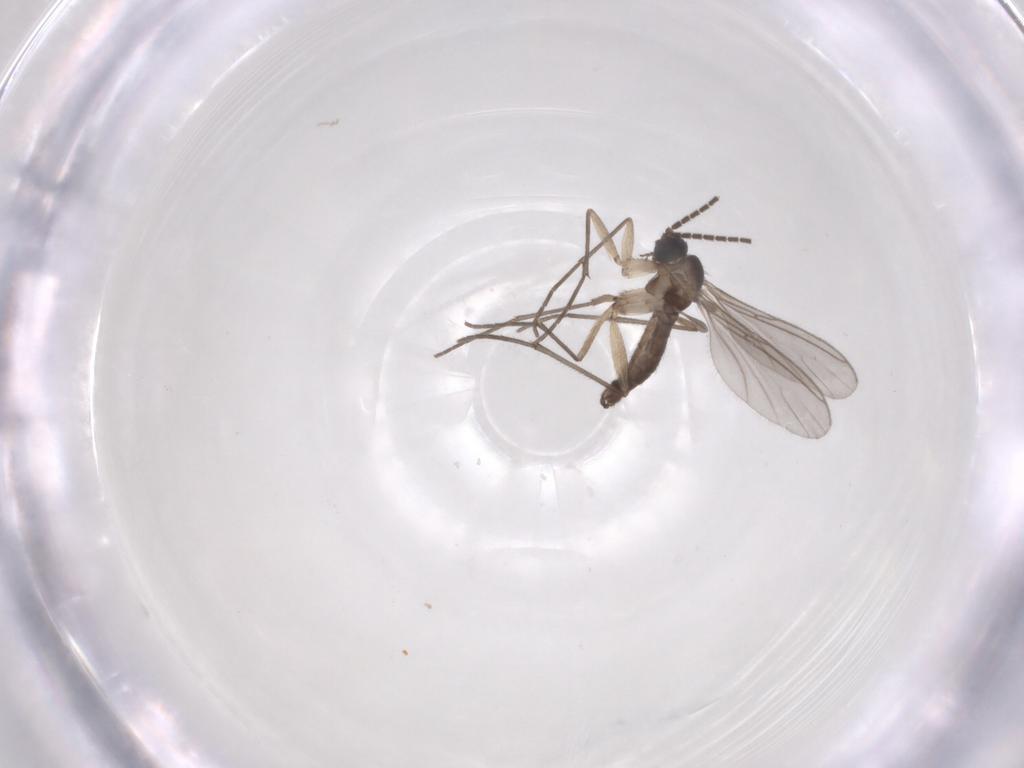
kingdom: Animalia
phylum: Arthropoda
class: Insecta
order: Diptera
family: Sciaridae
